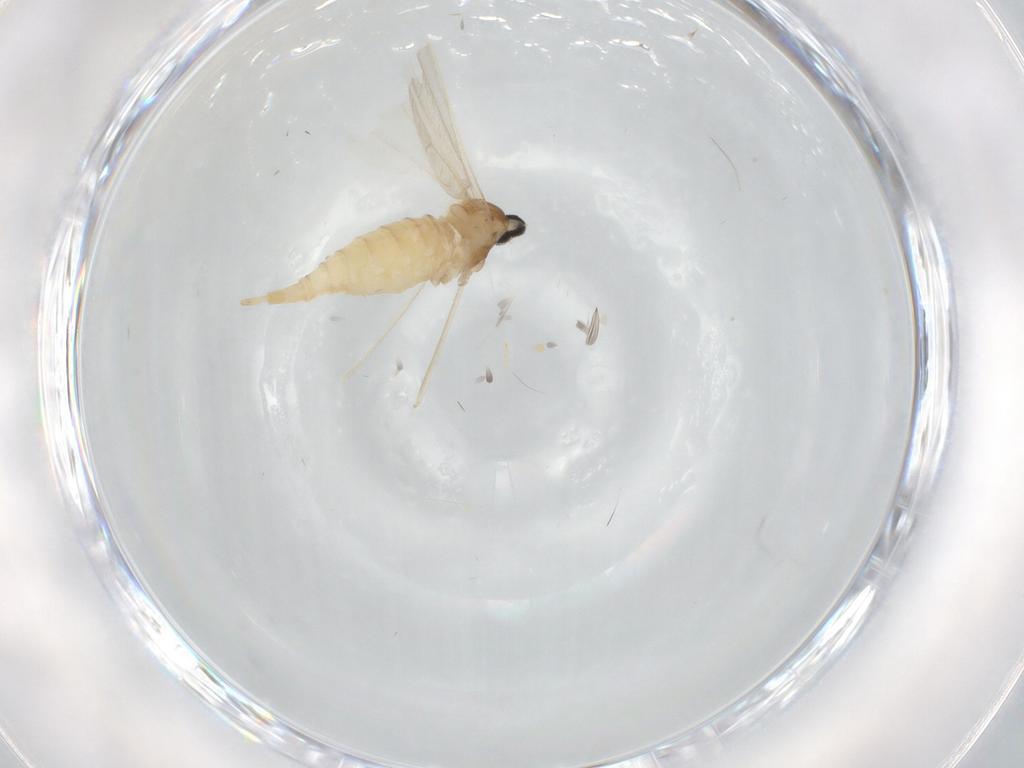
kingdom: Animalia
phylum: Arthropoda
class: Insecta
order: Diptera
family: Cecidomyiidae
